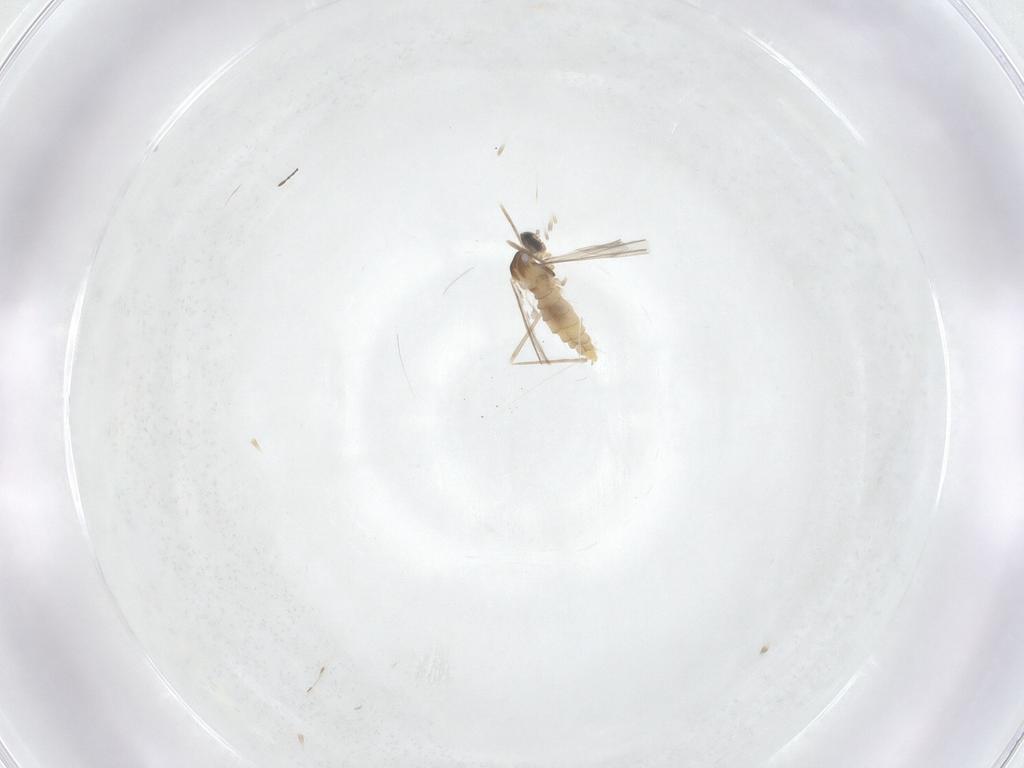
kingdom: Animalia
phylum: Arthropoda
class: Insecta
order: Diptera
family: Cecidomyiidae
